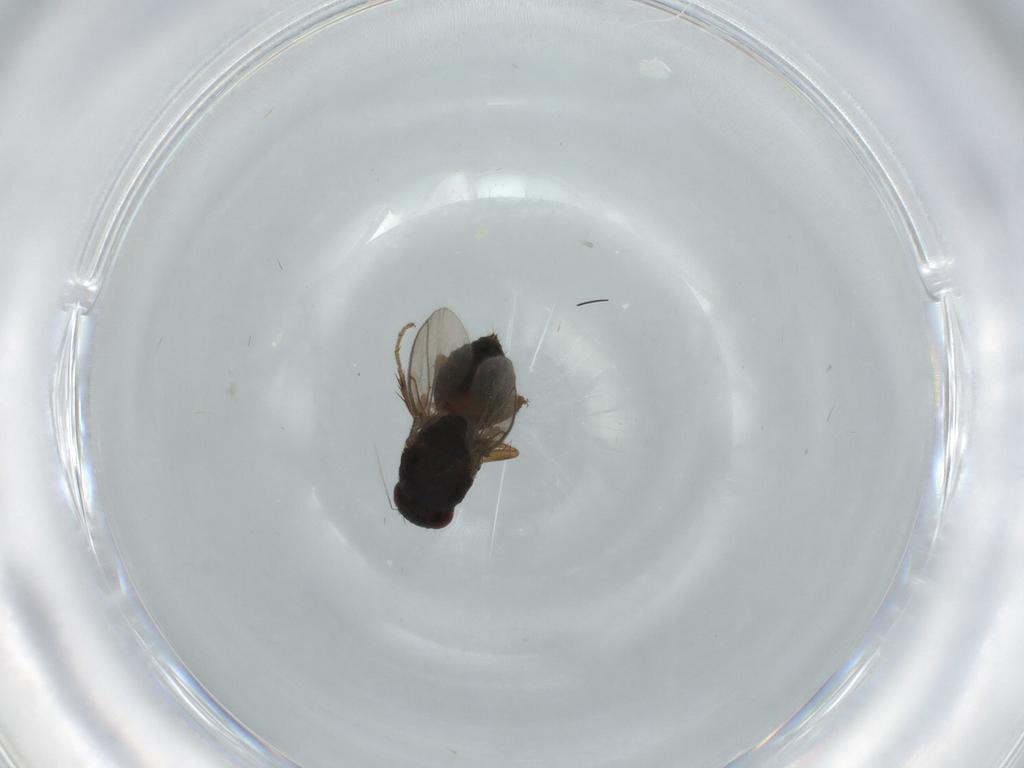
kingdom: Animalia
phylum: Arthropoda
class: Insecta
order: Diptera
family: Sphaeroceridae
